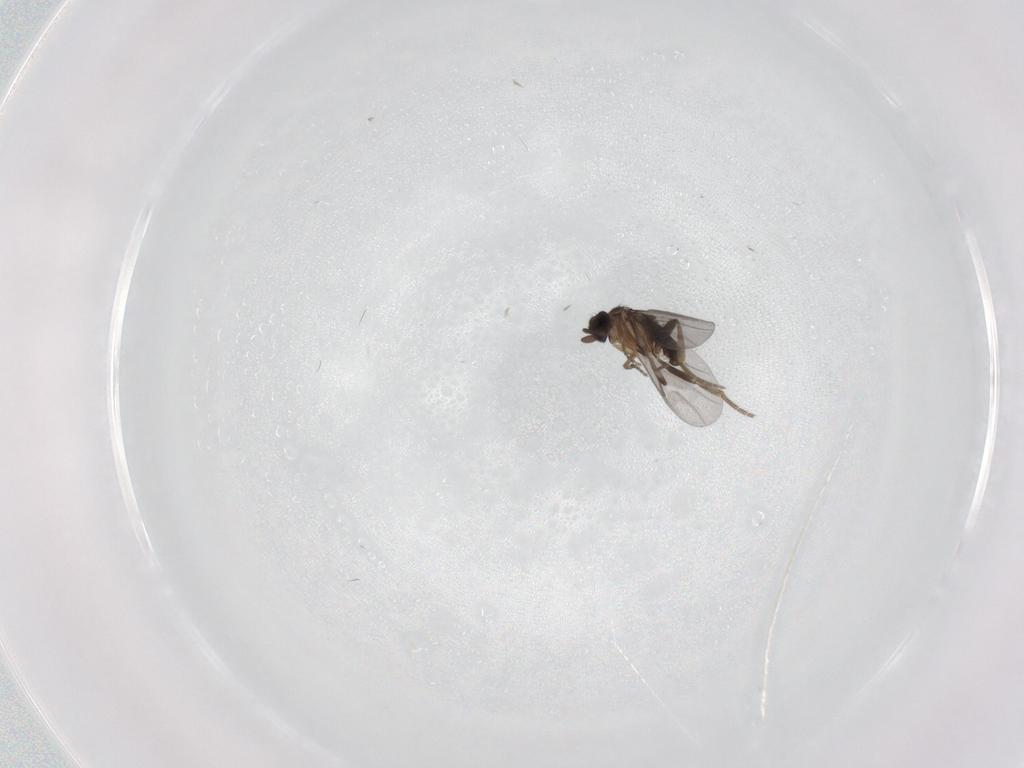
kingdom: Animalia
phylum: Arthropoda
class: Insecta
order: Diptera
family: Psychodidae
